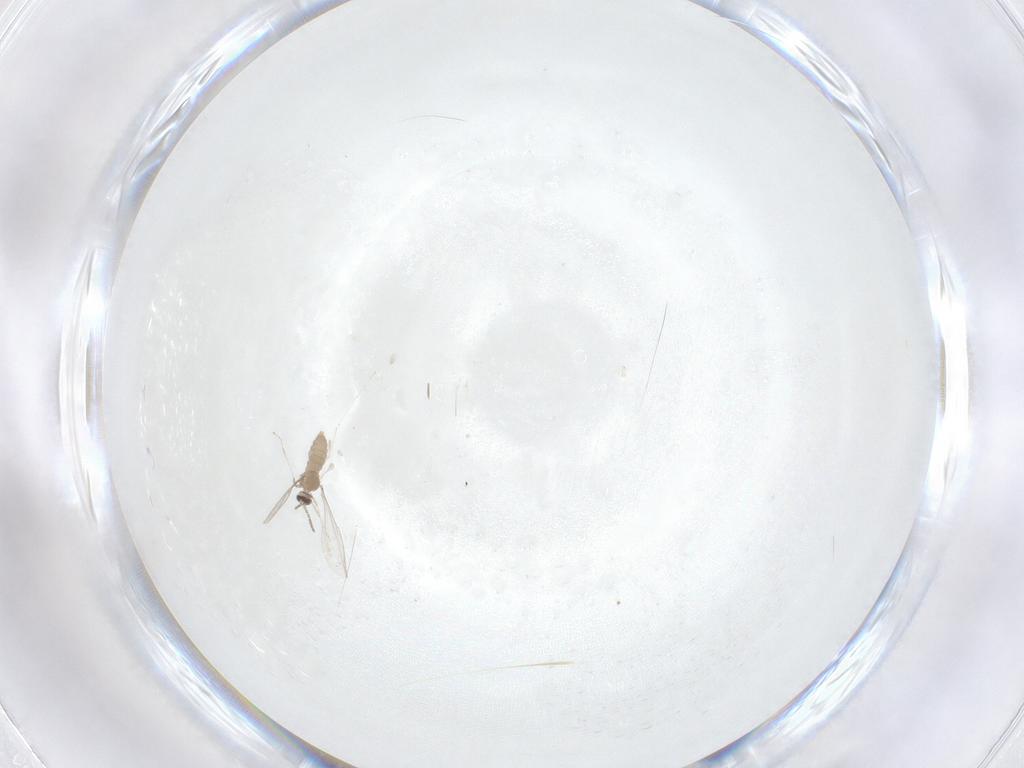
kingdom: Animalia
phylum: Arthropoda
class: Insecta
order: Diptera
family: Cecidomyiidae
